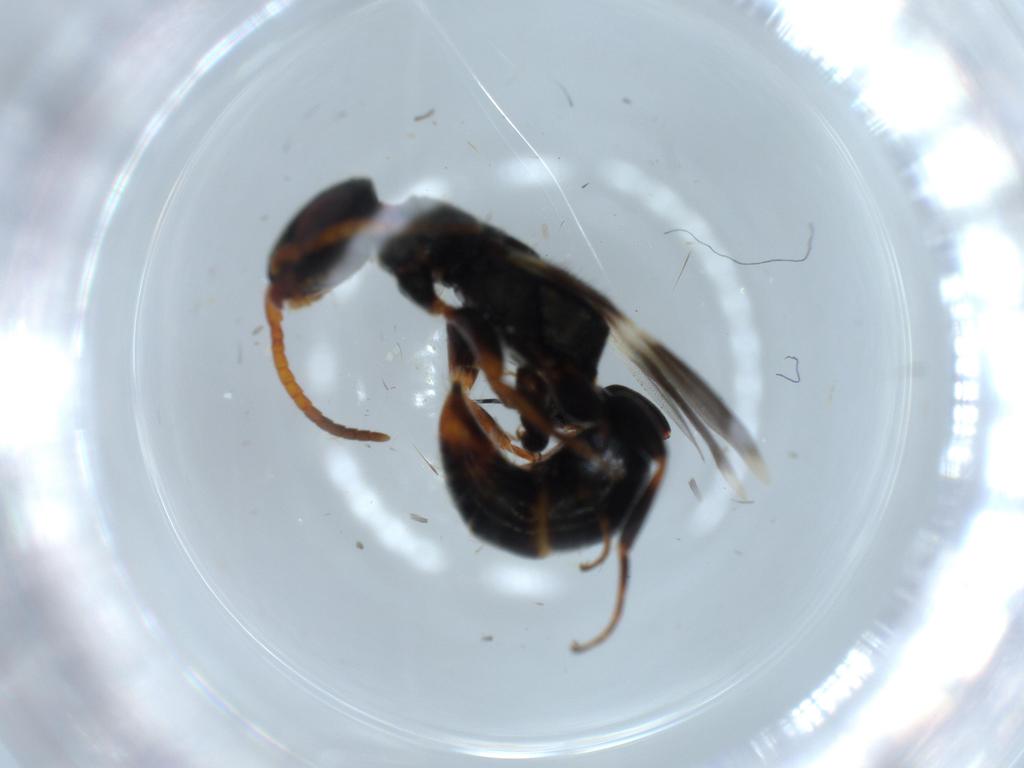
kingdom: Animalia
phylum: Arthropoda
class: Insecta
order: Hymenoptera
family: Bethylidae
